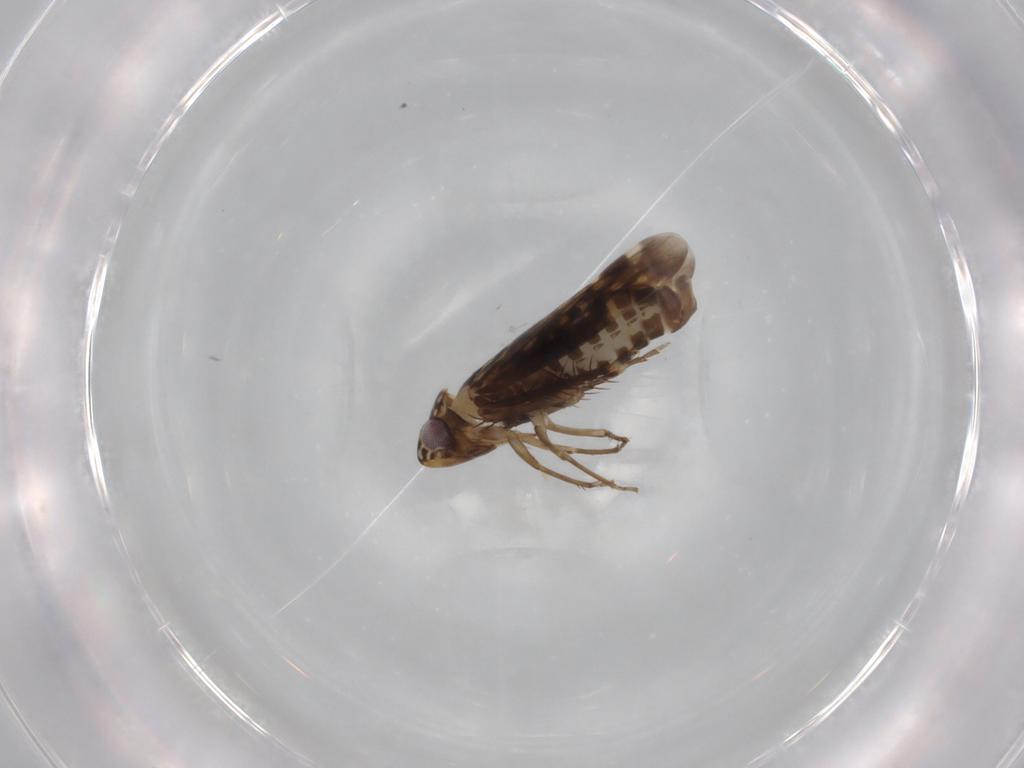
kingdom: Animalia
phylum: Arthropoda
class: Insecta
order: Hemiptera
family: Cicadellidae
